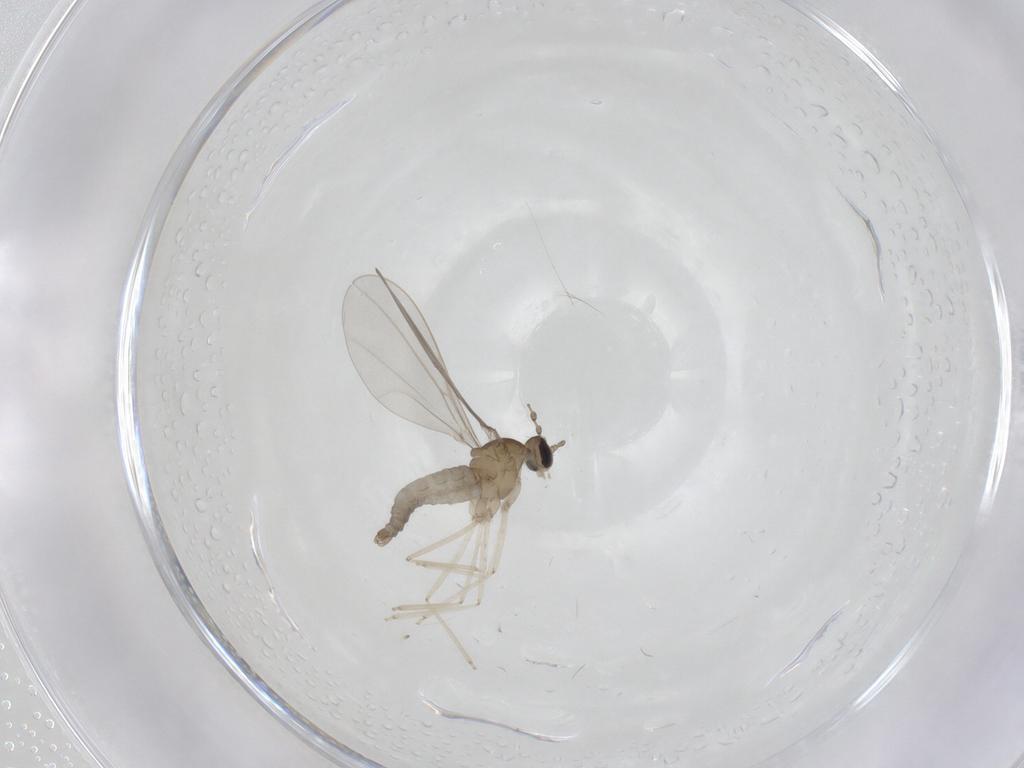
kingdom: Animalia
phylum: Arthropoda
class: Insecta
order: Diptera
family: Cecidomyiidae
